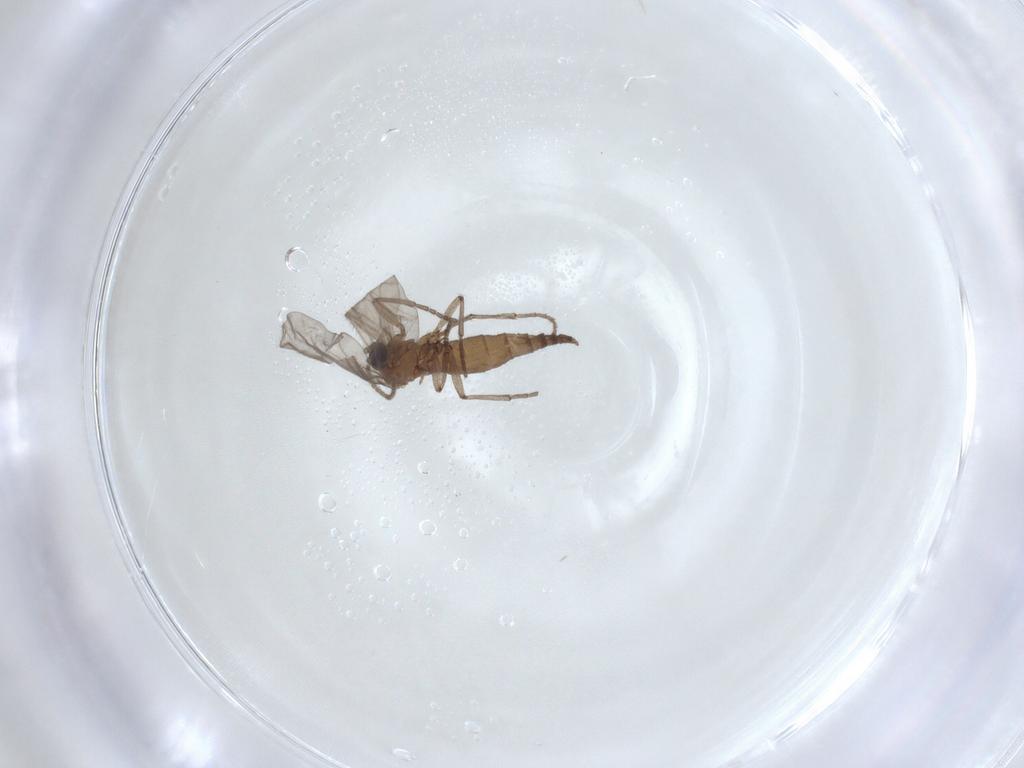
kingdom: Animalia
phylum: Arthropoda
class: Insecta
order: Diptera
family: Sciaridae
